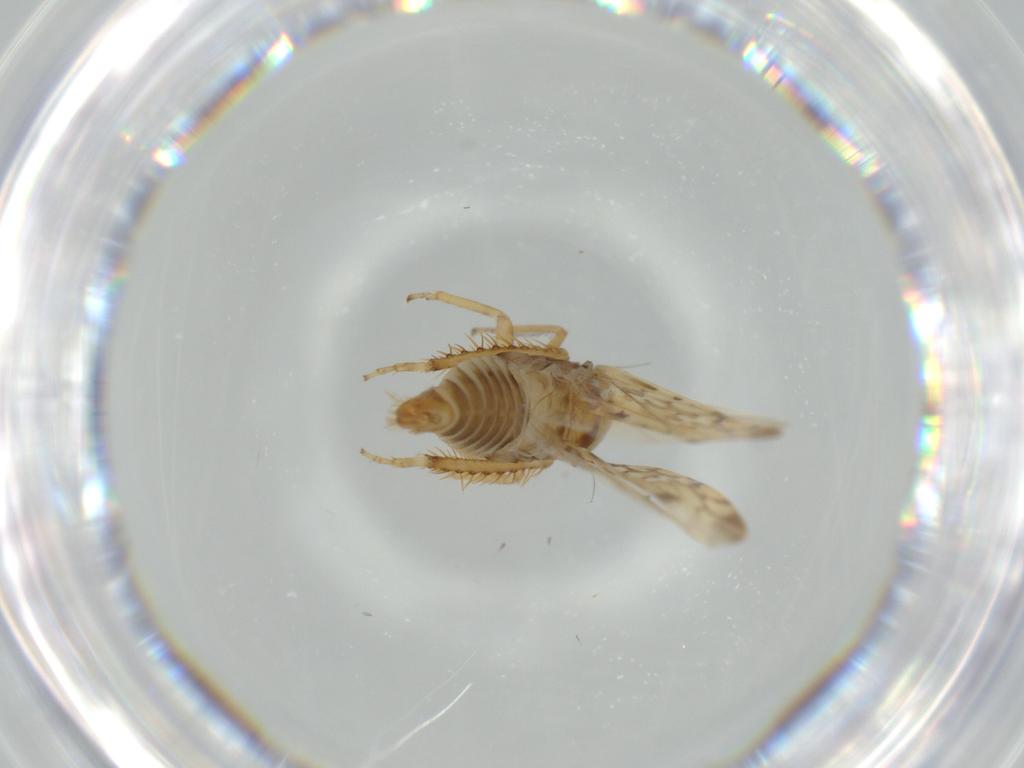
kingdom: Animalia
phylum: Arthropoda
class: Insecta
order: Hemiptera
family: Cicadellidae
